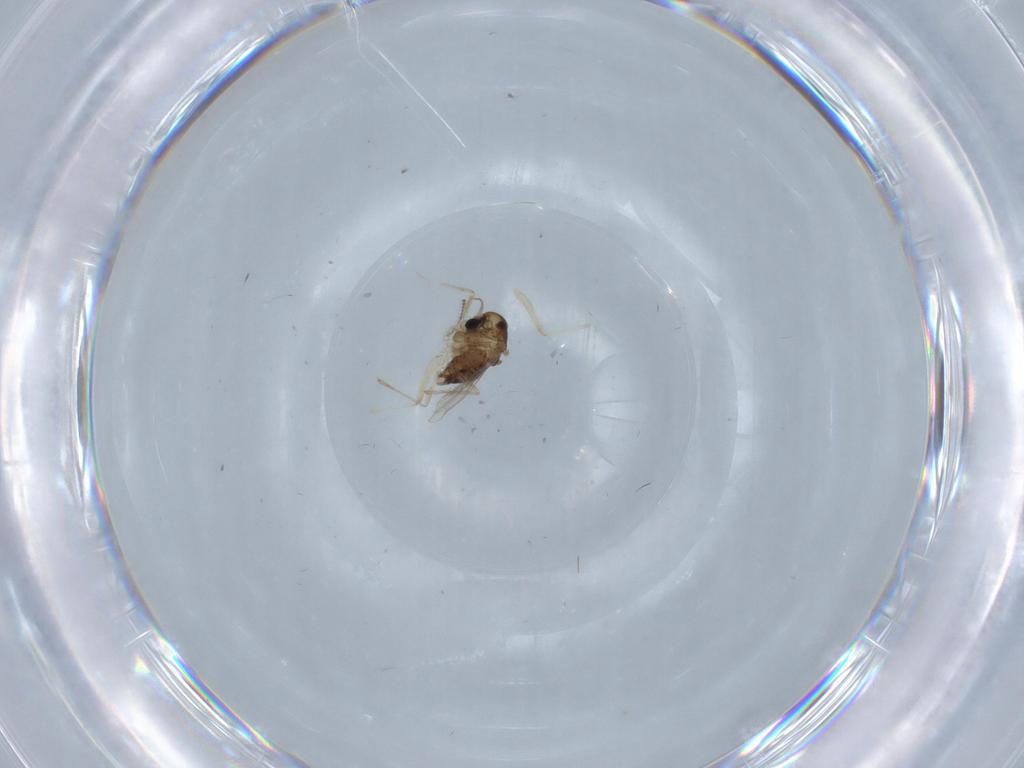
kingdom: Animalia
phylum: Arthropoda
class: Insecta
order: Diptera
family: Chironomidae
